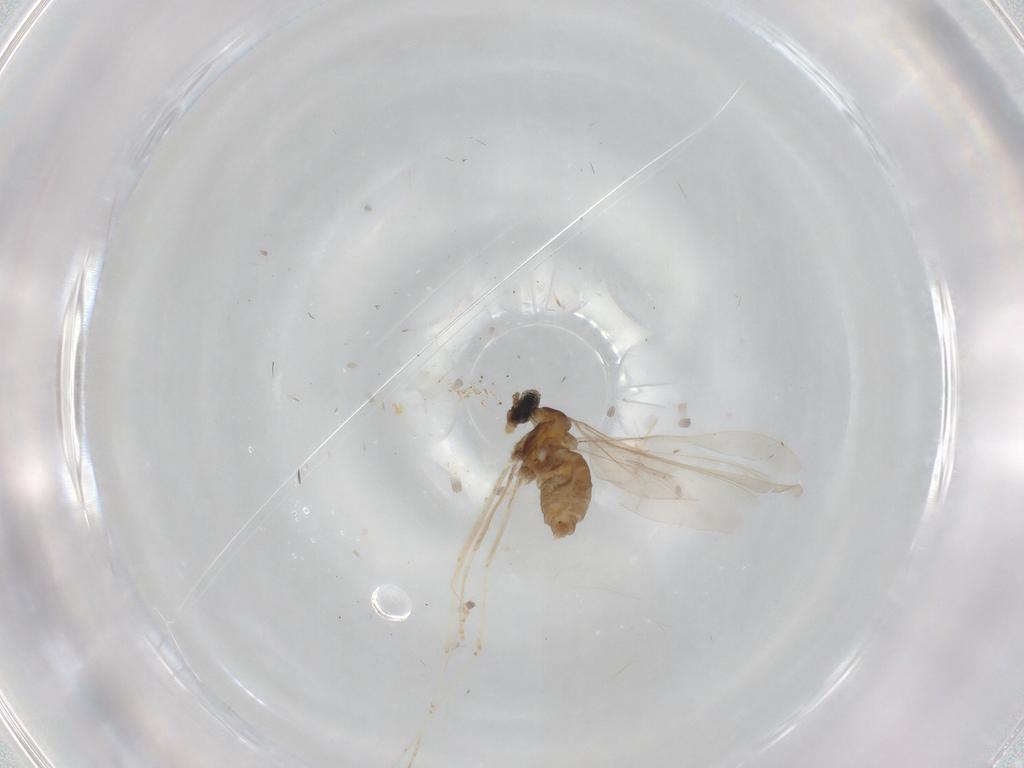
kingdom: Animalia
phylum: Arthropoda
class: Insecta
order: Diptera
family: Cecidomyiidae
